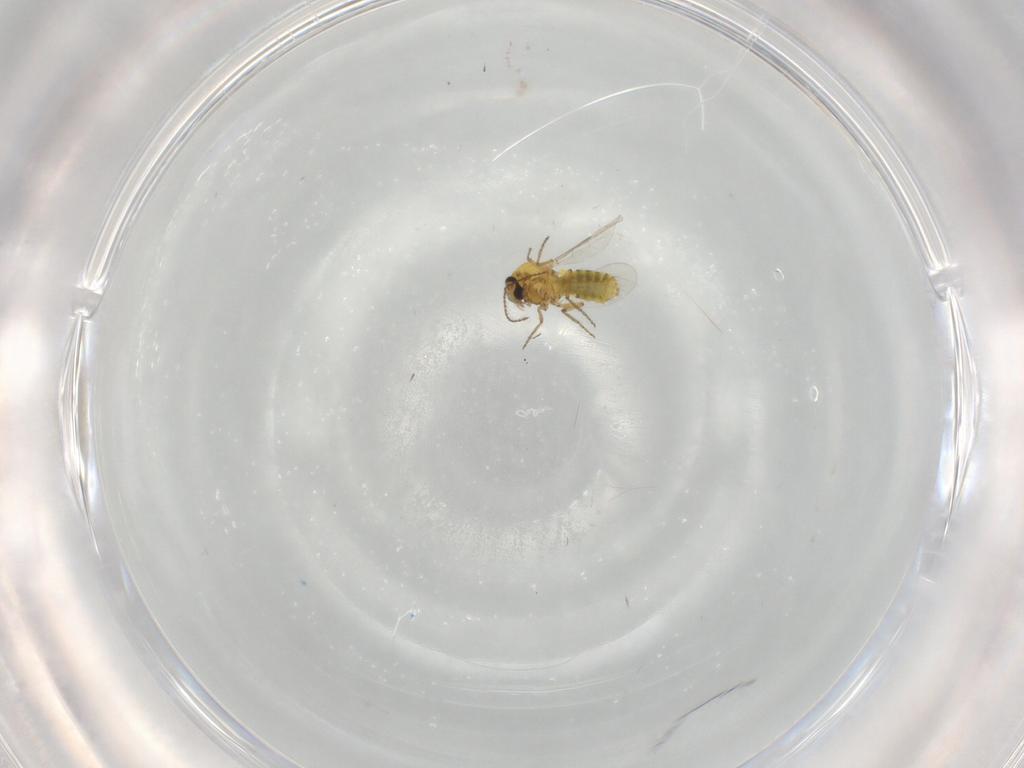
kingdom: Animalia
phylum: Arthropoda
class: Insecta
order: Diptera
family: Ceratopogonidae
